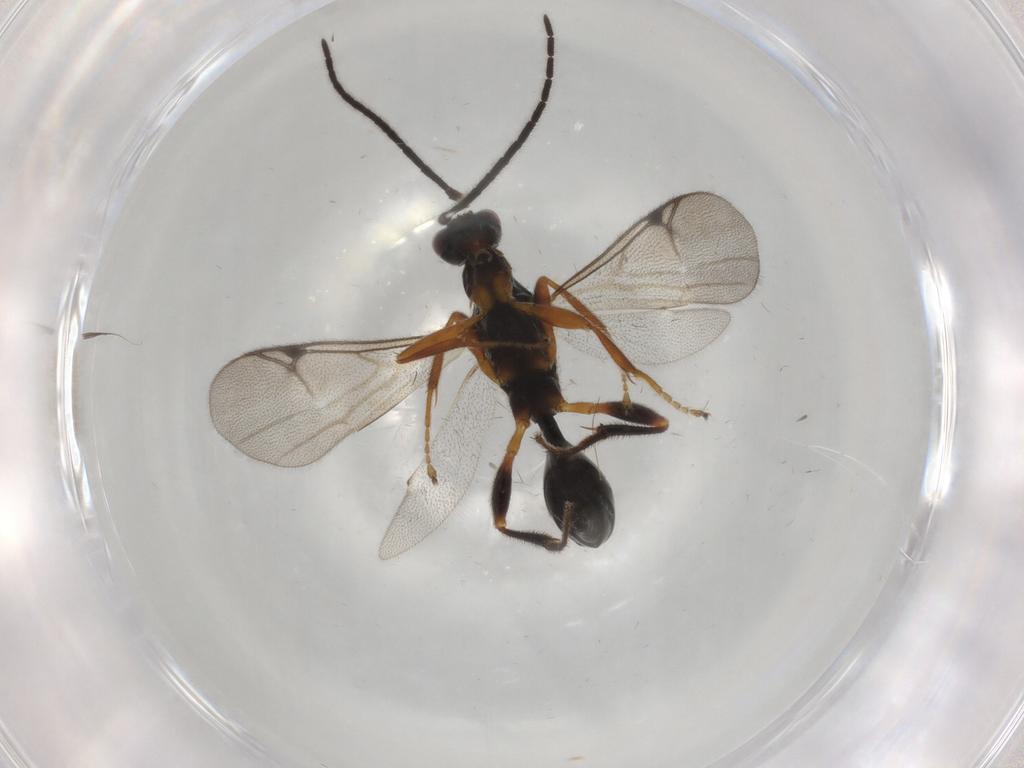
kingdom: Animalia
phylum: Arthropoda
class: Insecta
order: Hymenoptera
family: Proctotrupidae
